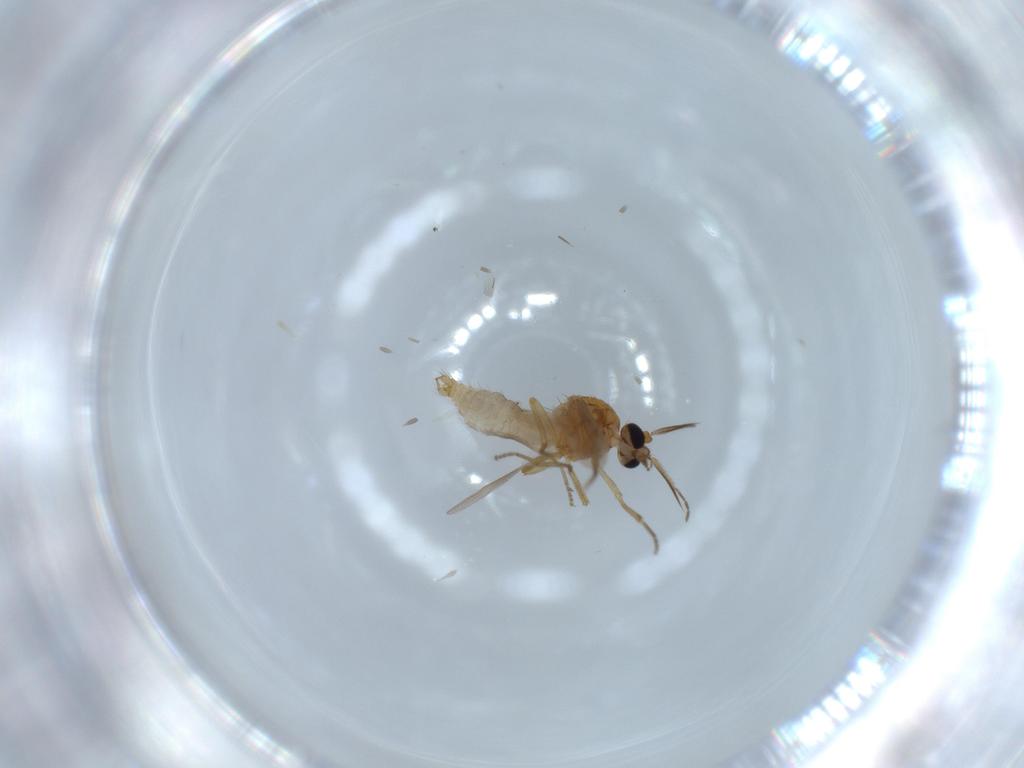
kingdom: Animalia
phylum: Arthropoda
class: Insecta
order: Diptera
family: Ceratopogonidae
